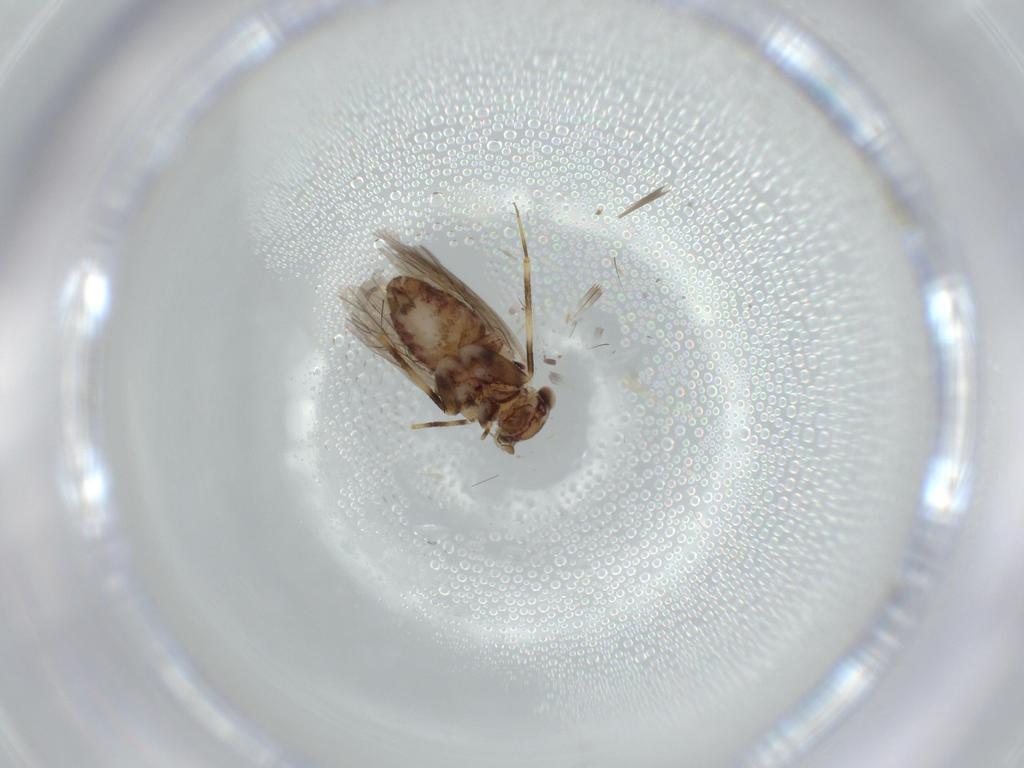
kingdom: Animalia
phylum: Arthropoda
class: Insecta
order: Psocodea
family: Lepidopsocidae
